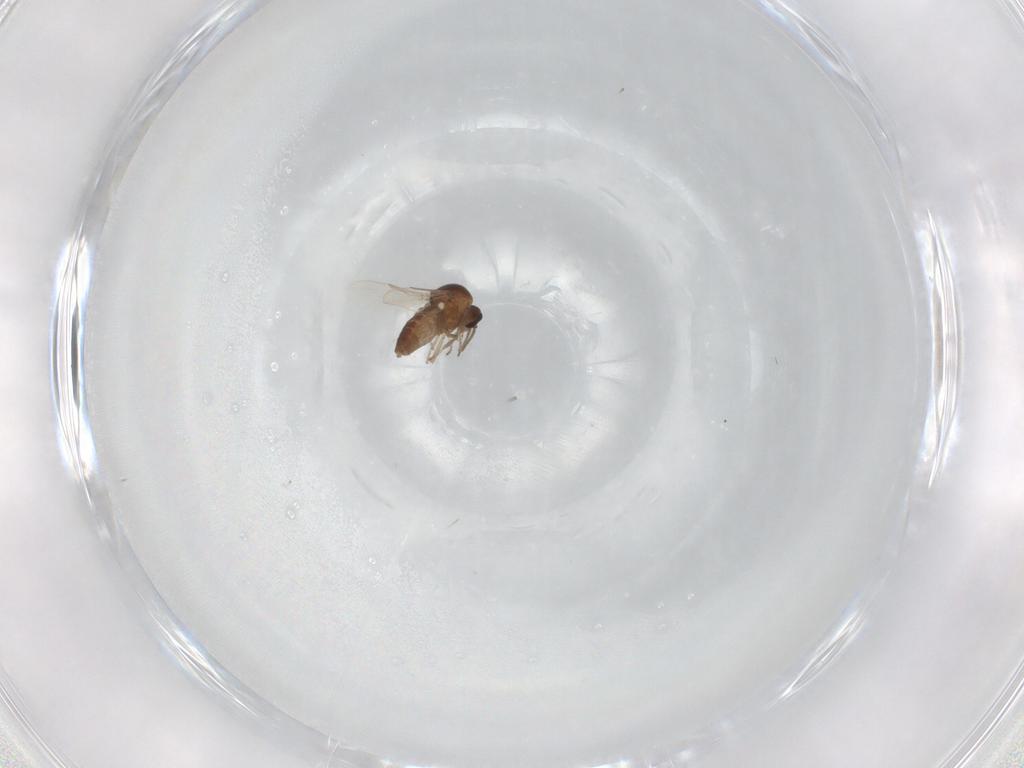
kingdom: Animalia
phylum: Arthropoda
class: Insecta
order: Diptera
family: Ceratopogonidae
